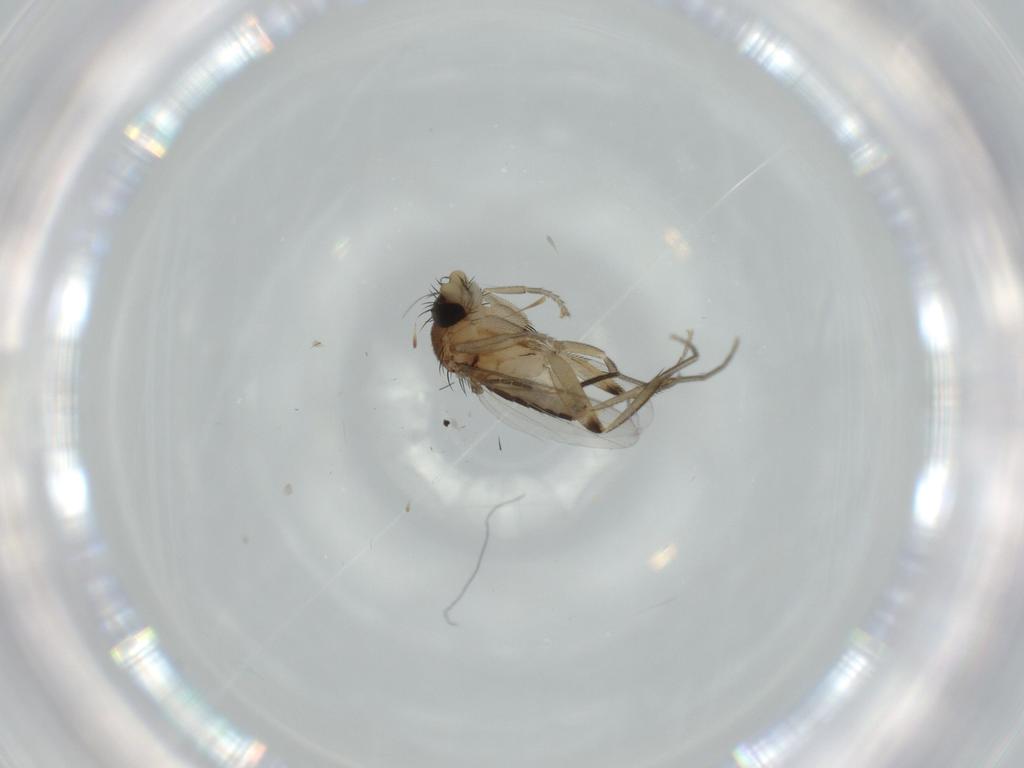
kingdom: Animalia
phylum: Arthropoda
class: Insecta
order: Diptera
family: Phoridae
